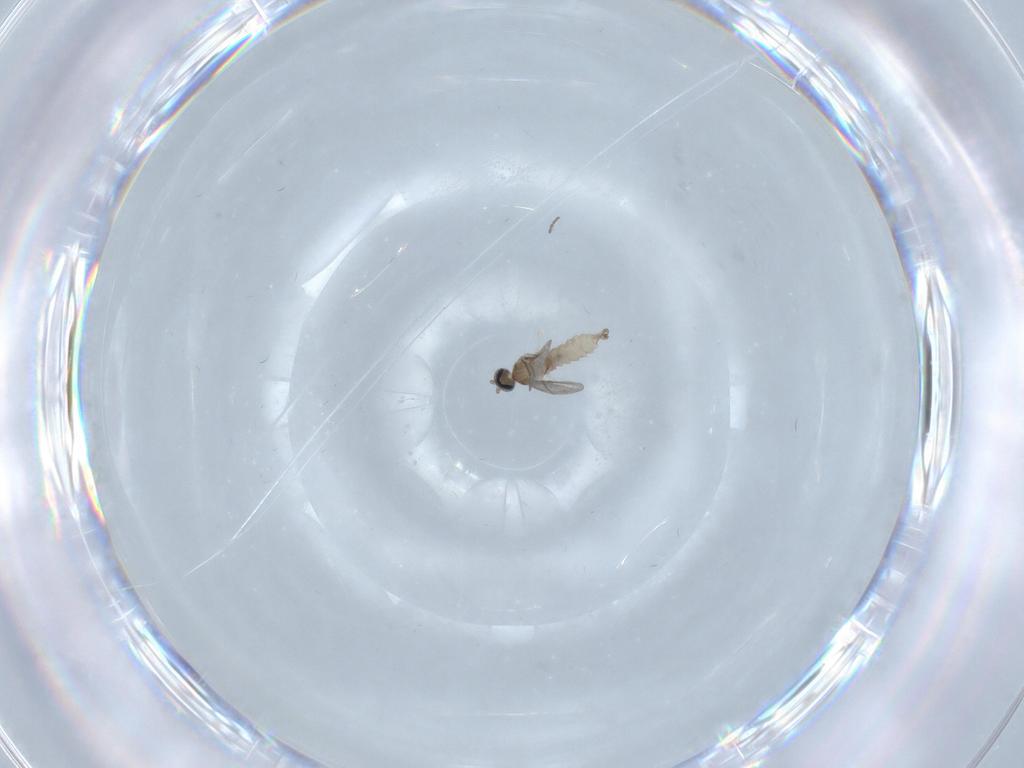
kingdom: Animalia
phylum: Arthropoda
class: Insecta
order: Diptera
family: Cecidomyiidae
